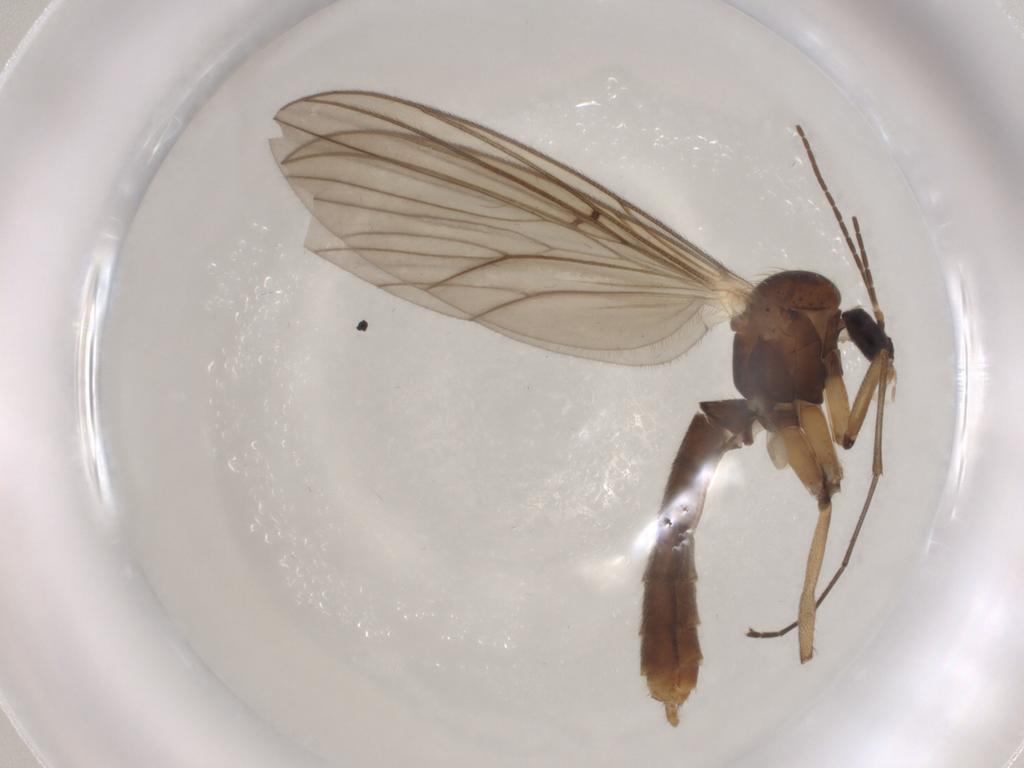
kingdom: Animalia
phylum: Arthropoda
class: Insecta
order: Diptera
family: Mycetophilidae
